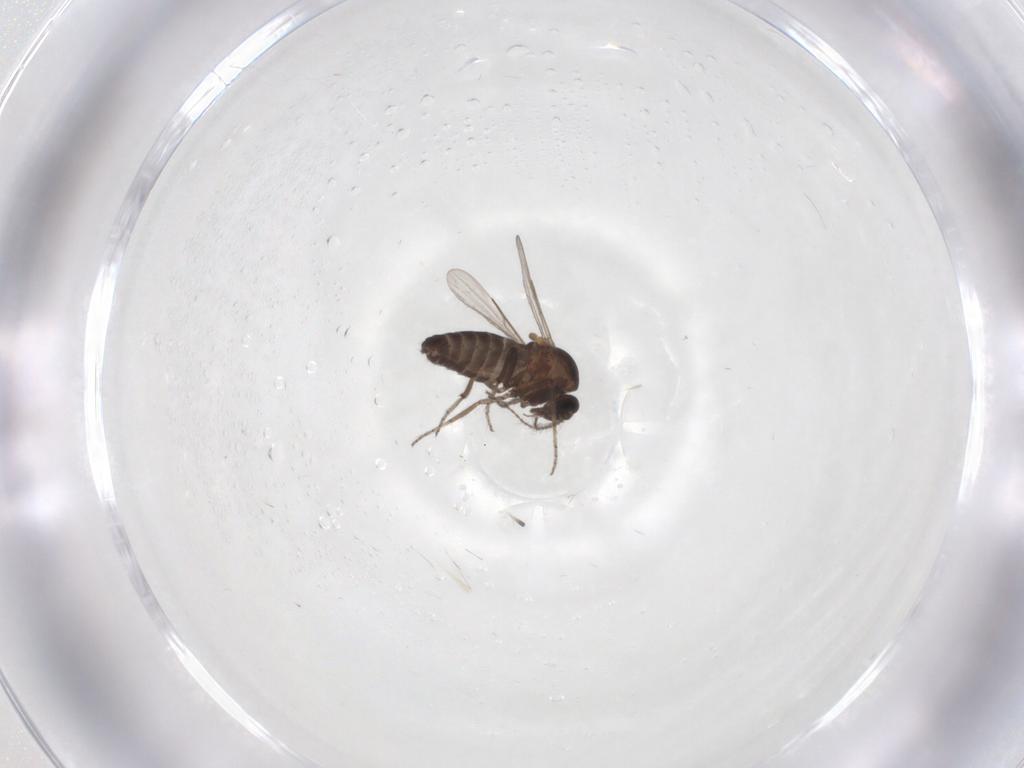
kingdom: Animalia
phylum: Arthropoda
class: Insecta
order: Diptera
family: Ceratopogonidae
